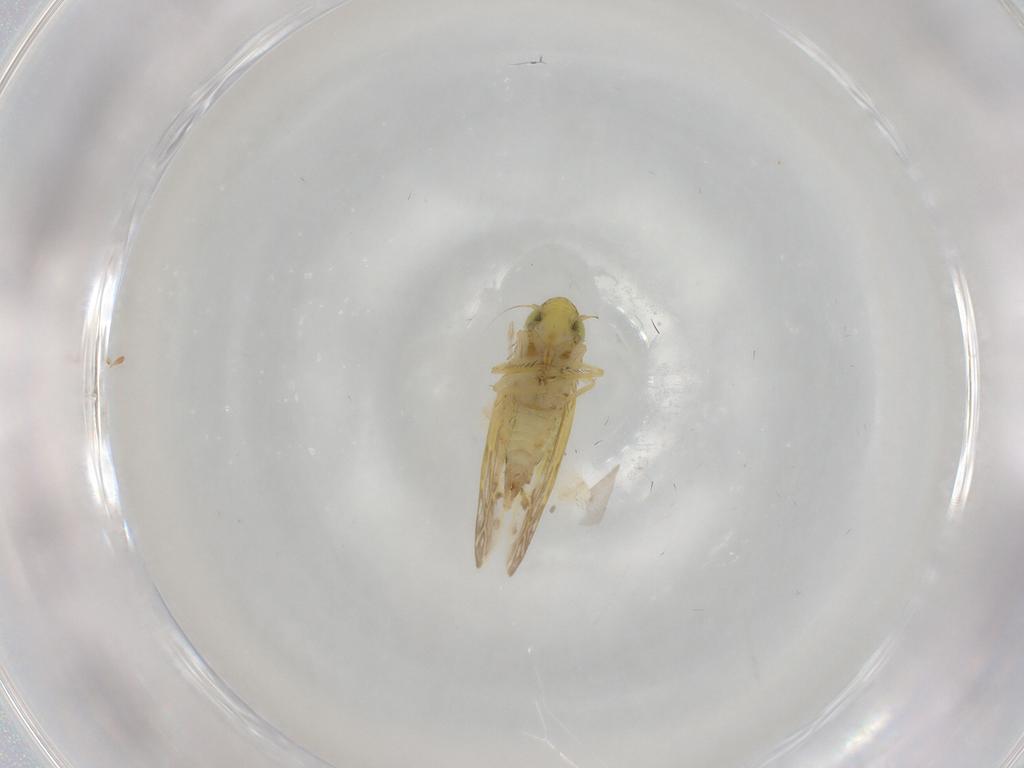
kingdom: Animalia
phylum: Arthropoda
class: Insecta
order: Hemiptera
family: Cicadellidae
